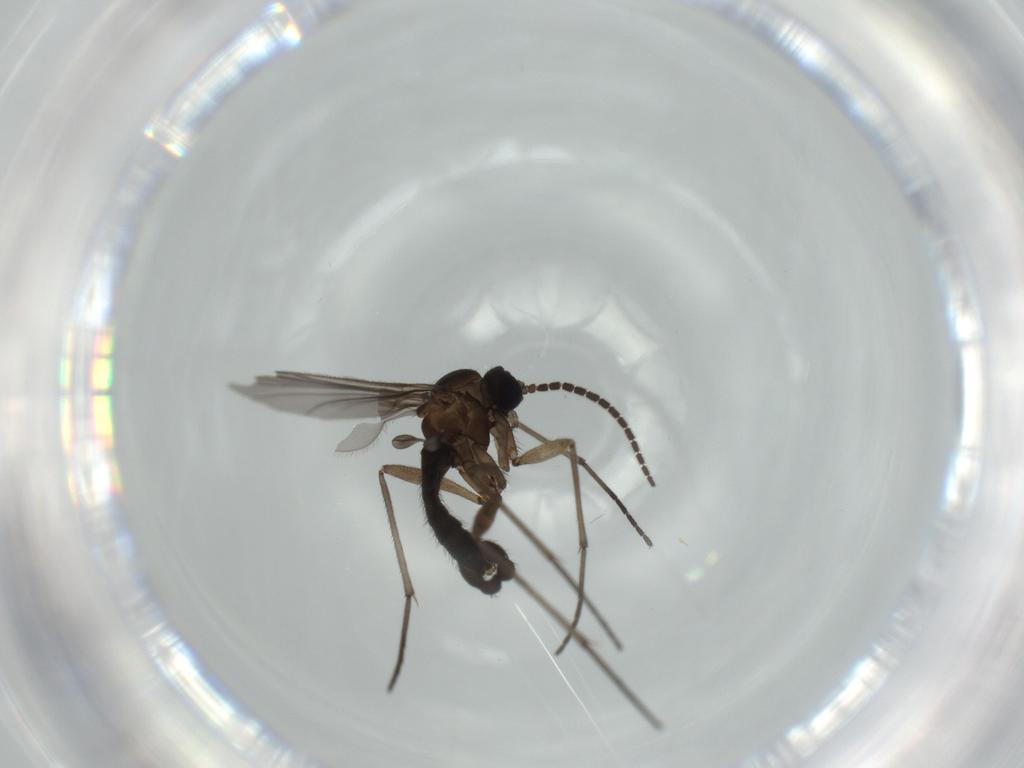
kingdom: Animalia
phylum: Arthropoda
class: Insecta
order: Diptera
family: Sciaridae
